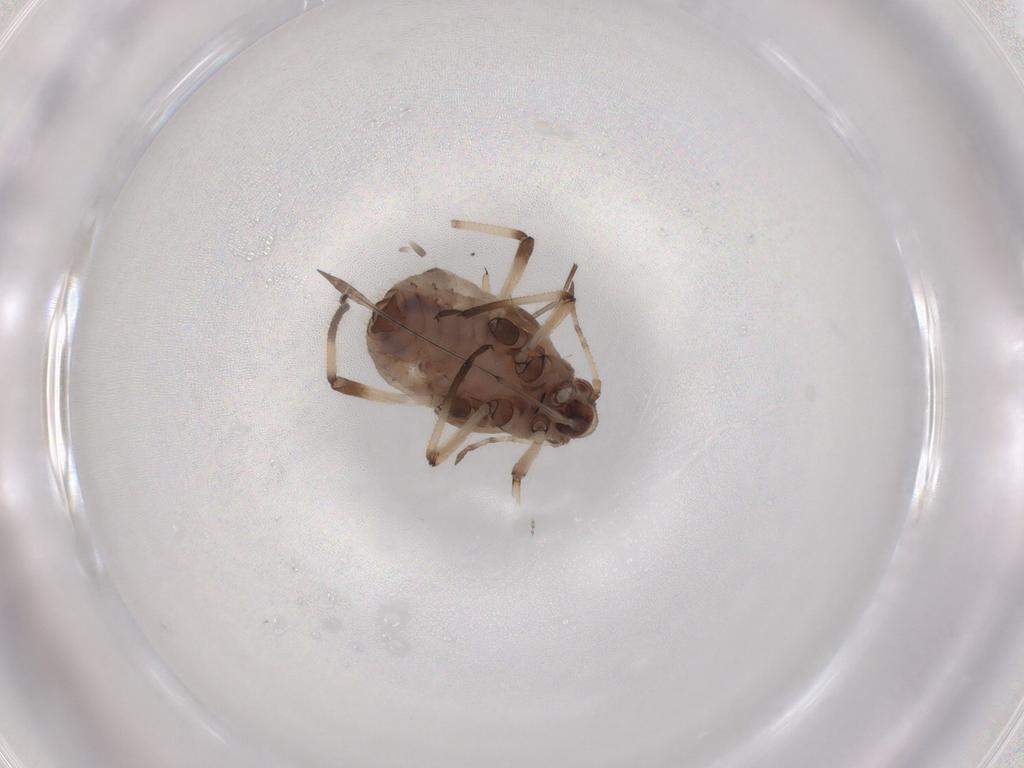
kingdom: Animalia
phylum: Arthropoda
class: Insecta
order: Hemiptera
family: Aphididae
